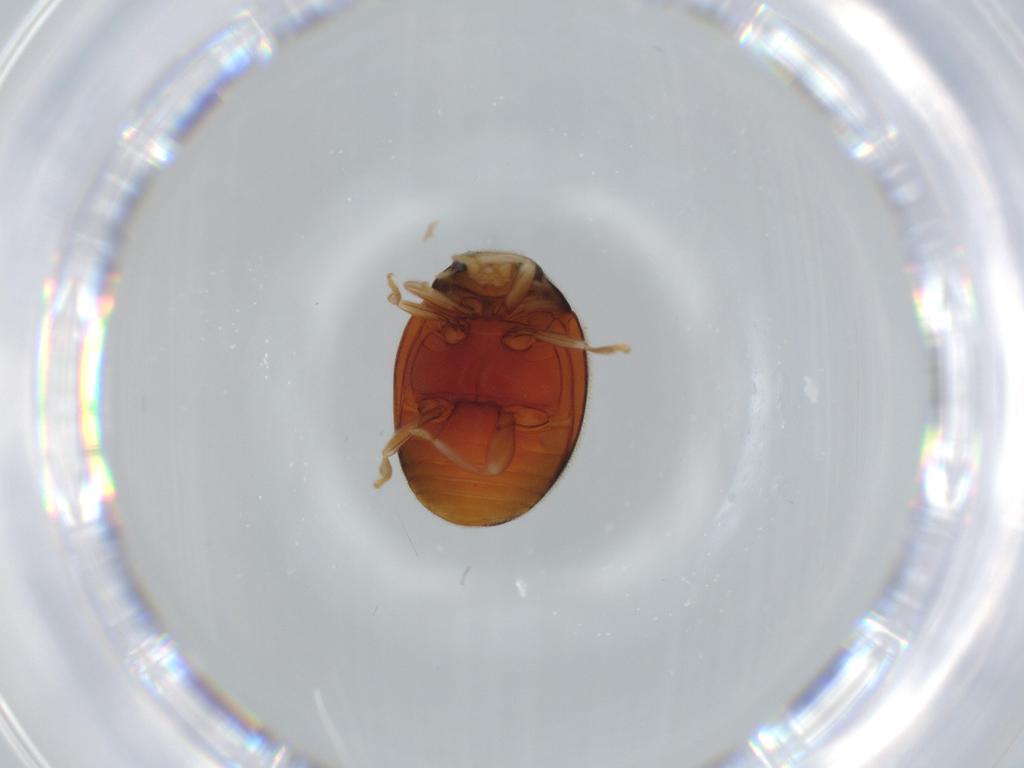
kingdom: Animalia
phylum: Arthropoda
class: Insecta
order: Coleoptera
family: Coccinellidae
